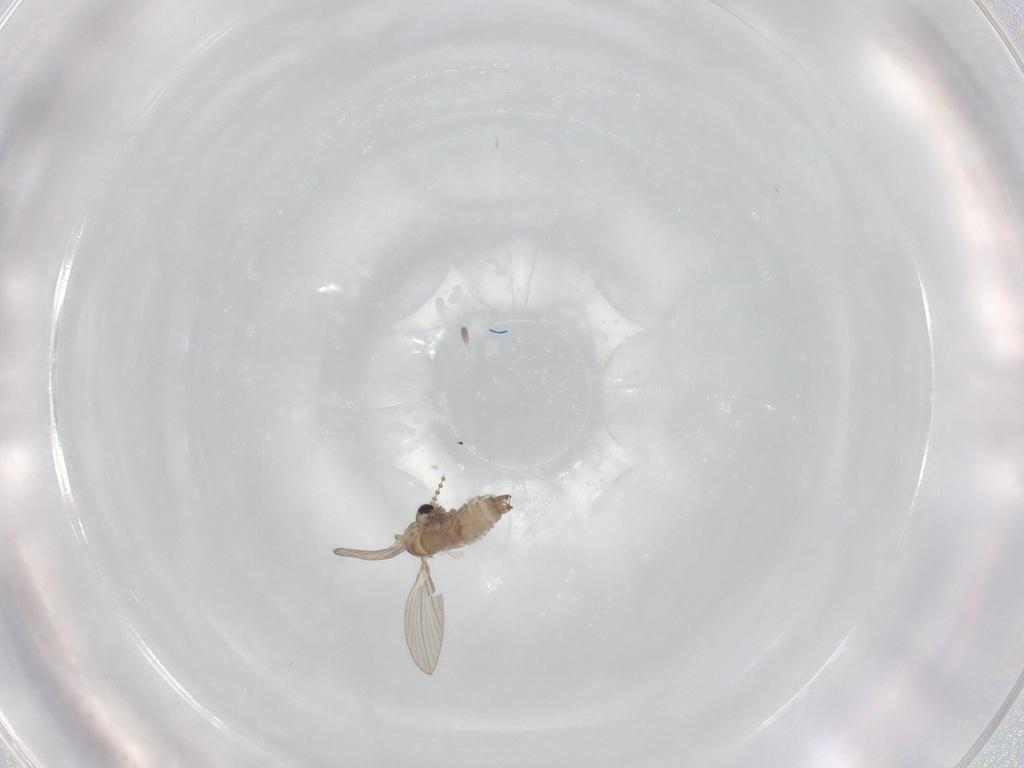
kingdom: Animalia
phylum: Arthropoda
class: Insecta
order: Diptera
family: Psychodidae
